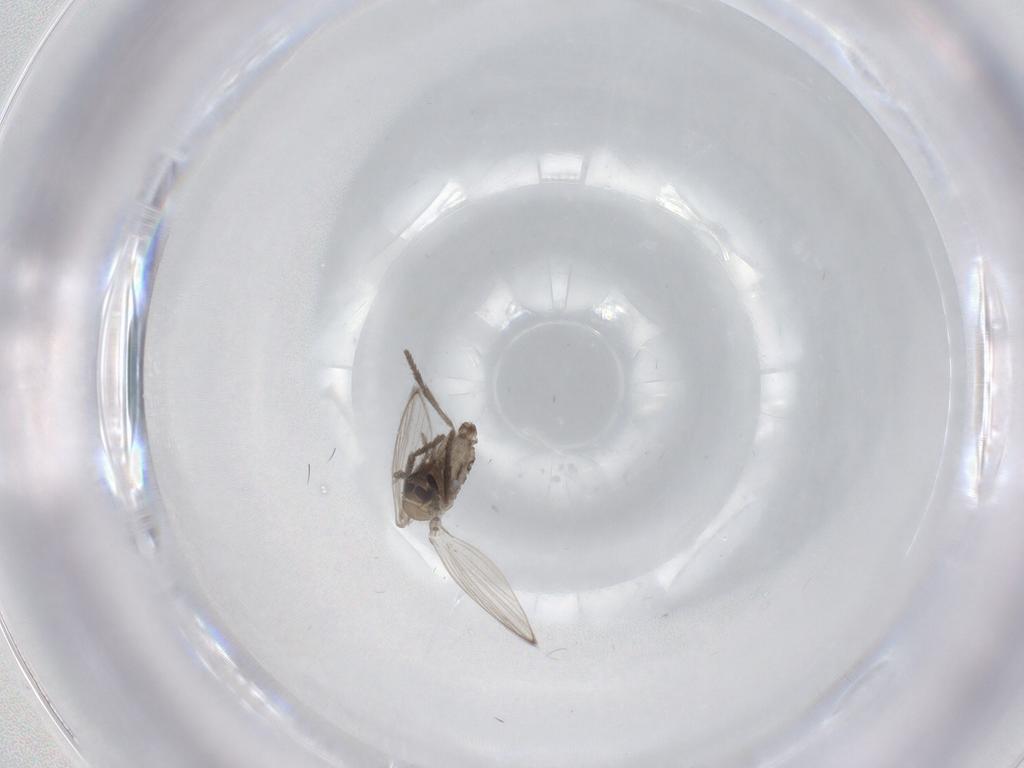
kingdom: Animalia
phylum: Arthropoda
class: Insecta
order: Diptera
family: Psychodidae
